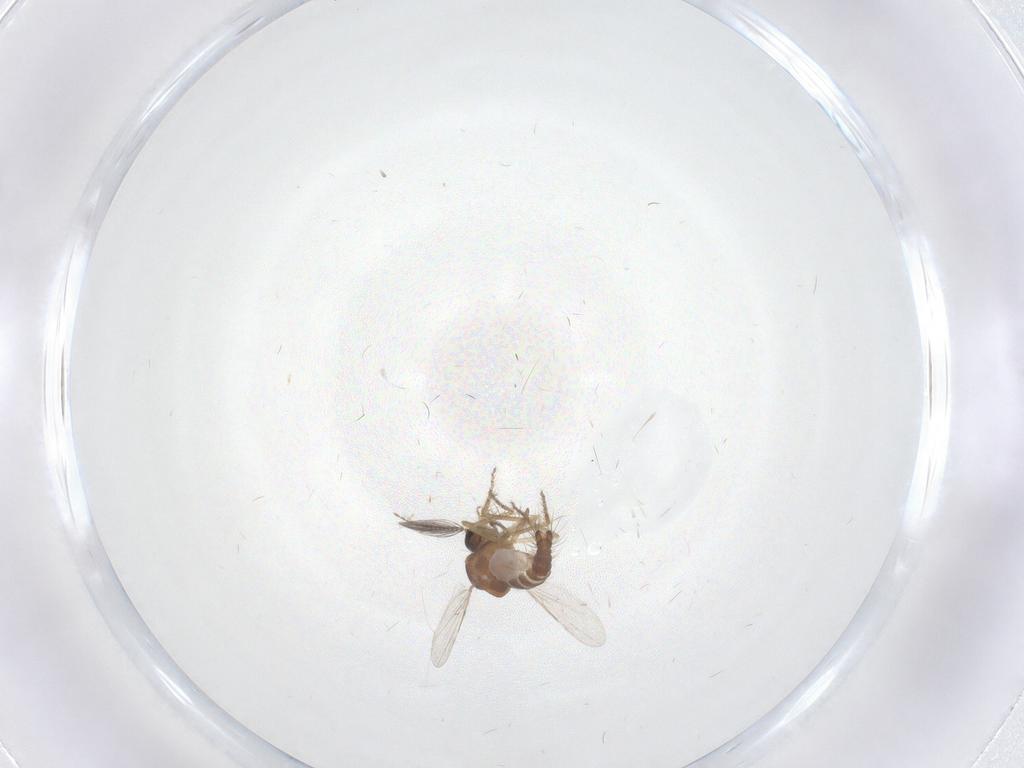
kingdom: Animalia
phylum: Arthropoda
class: Insecta
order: Diptera
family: Ceratopogonidae
